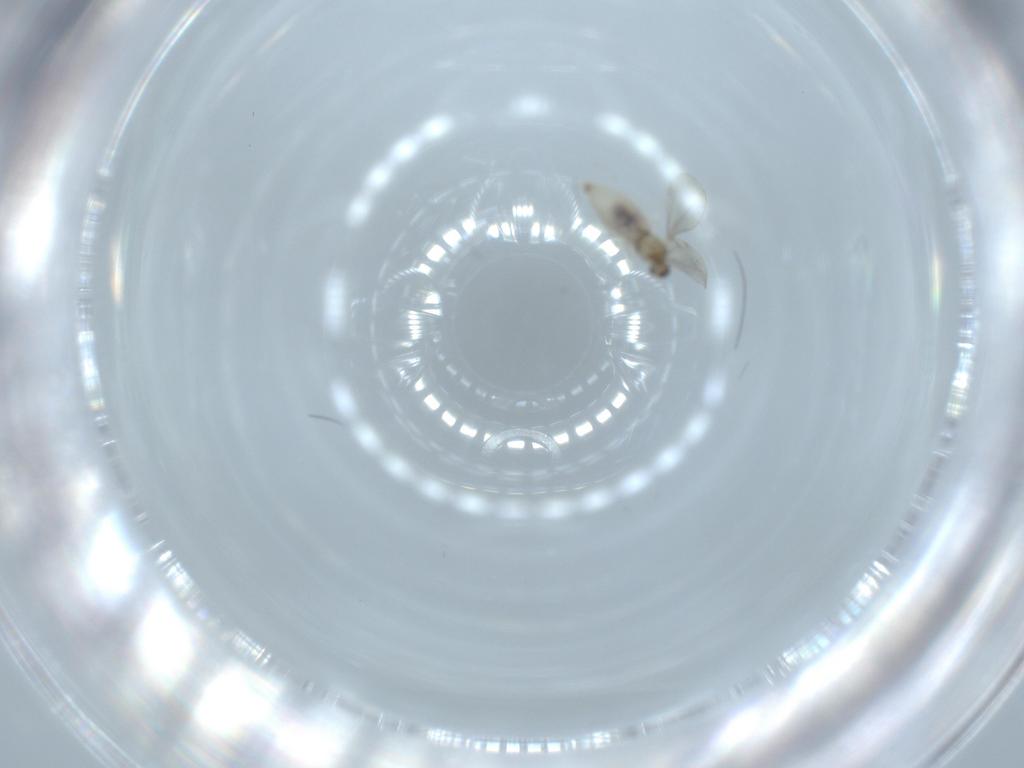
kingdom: Animalia
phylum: Arthropoda
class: Insecta
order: Diptera
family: Cecidomyiidae
